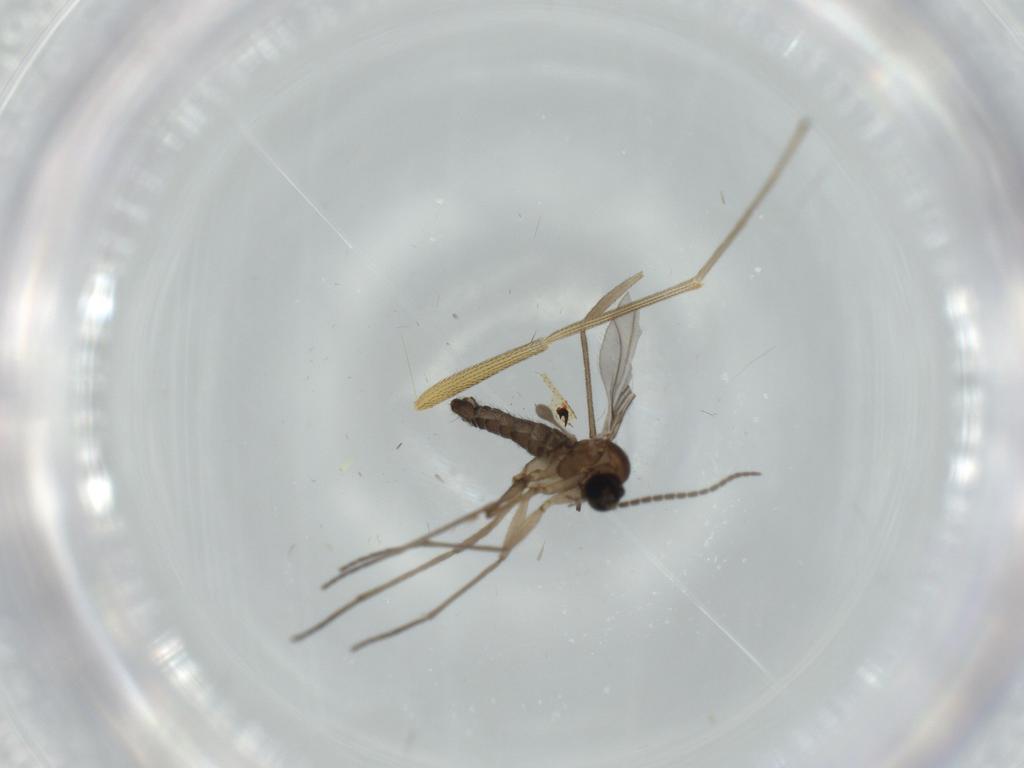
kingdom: Animalia
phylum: Arthropoda
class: Insecta
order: Diptera
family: Dolichopodidae
